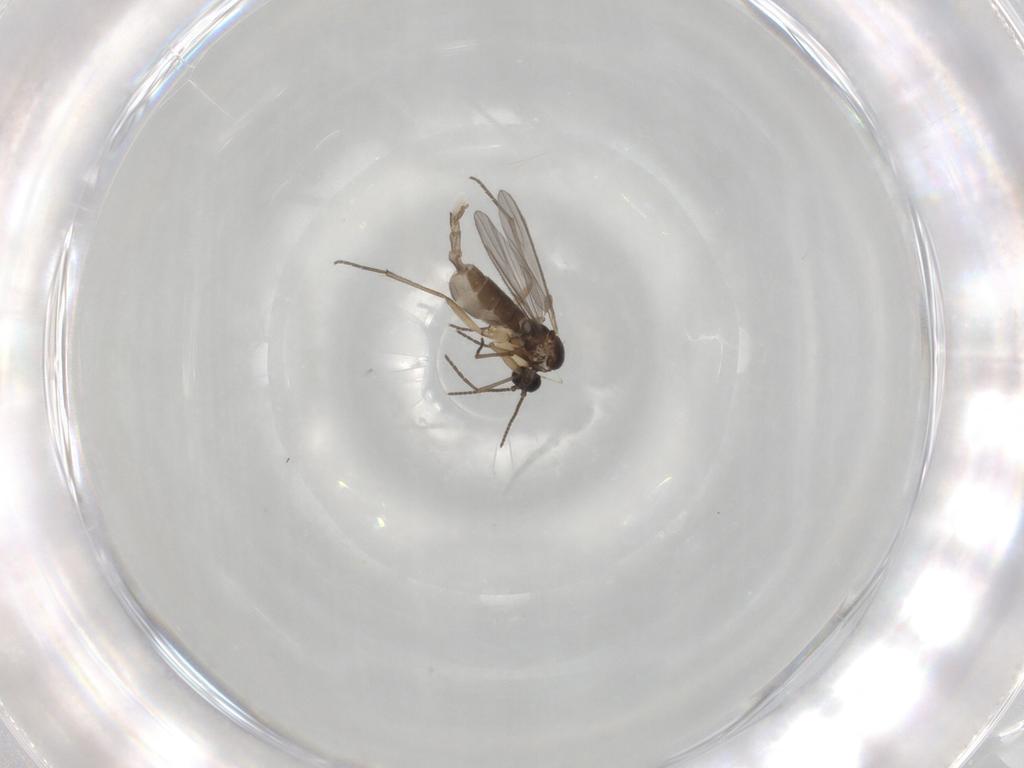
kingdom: Animalia
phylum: Arthropoda
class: Insecta
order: Diptera
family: Sciaridae
